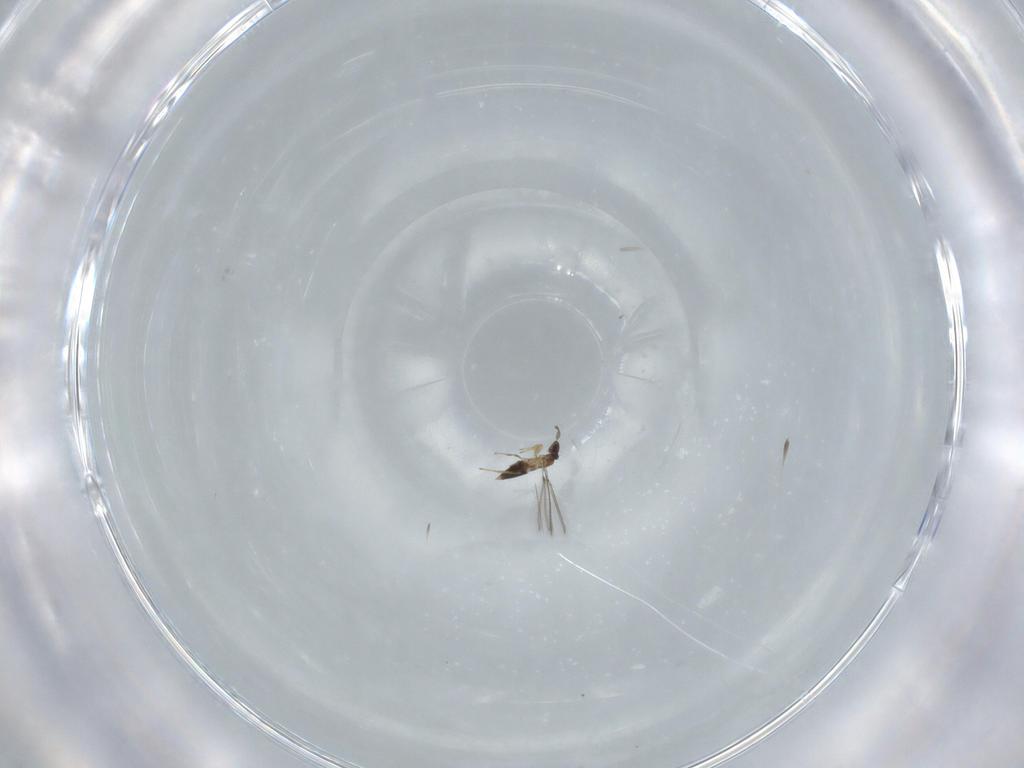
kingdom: Animalia
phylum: Arthropoda
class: Insecta
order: Hymenoptera
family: Mymaridae
